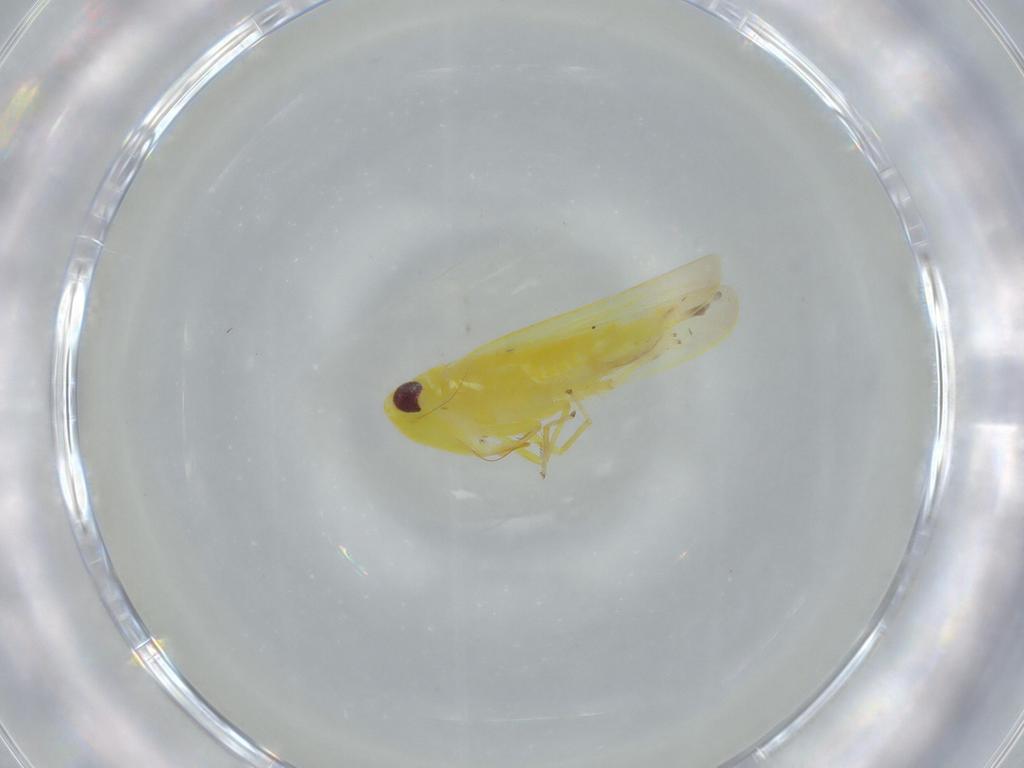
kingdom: Animalia
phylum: Arthropoda
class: Insecta
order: Hemiptera
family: Cicadellidae
